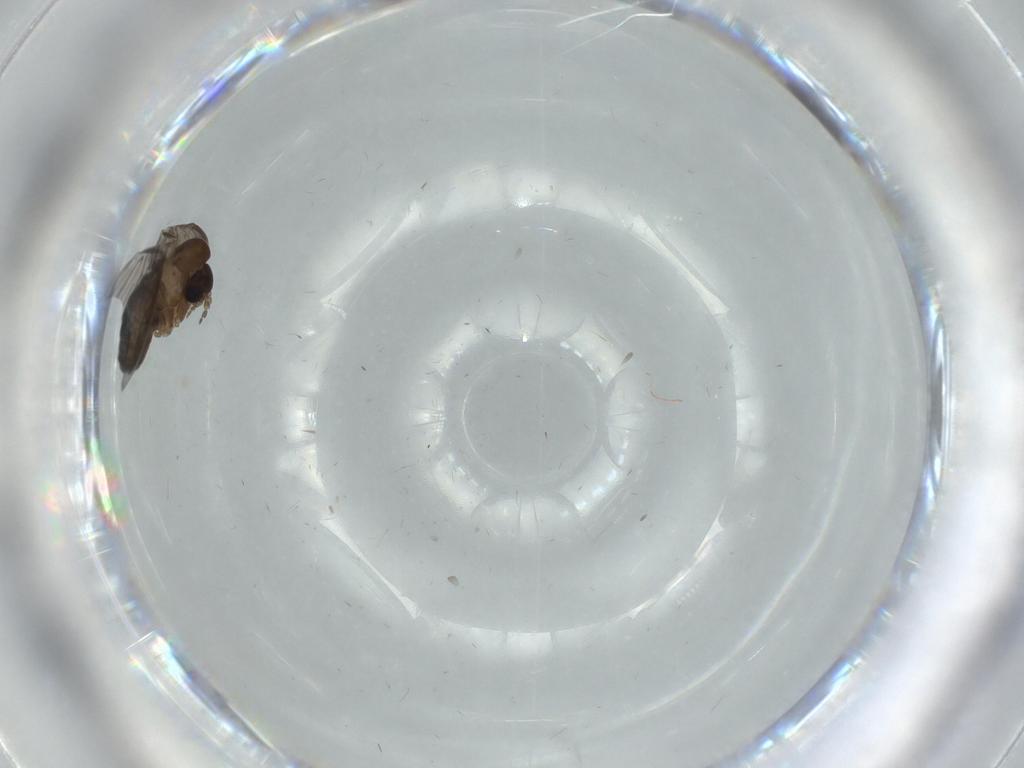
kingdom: Animalia
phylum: Arthropoda
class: Insecta
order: Diptera
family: Psychodidae
